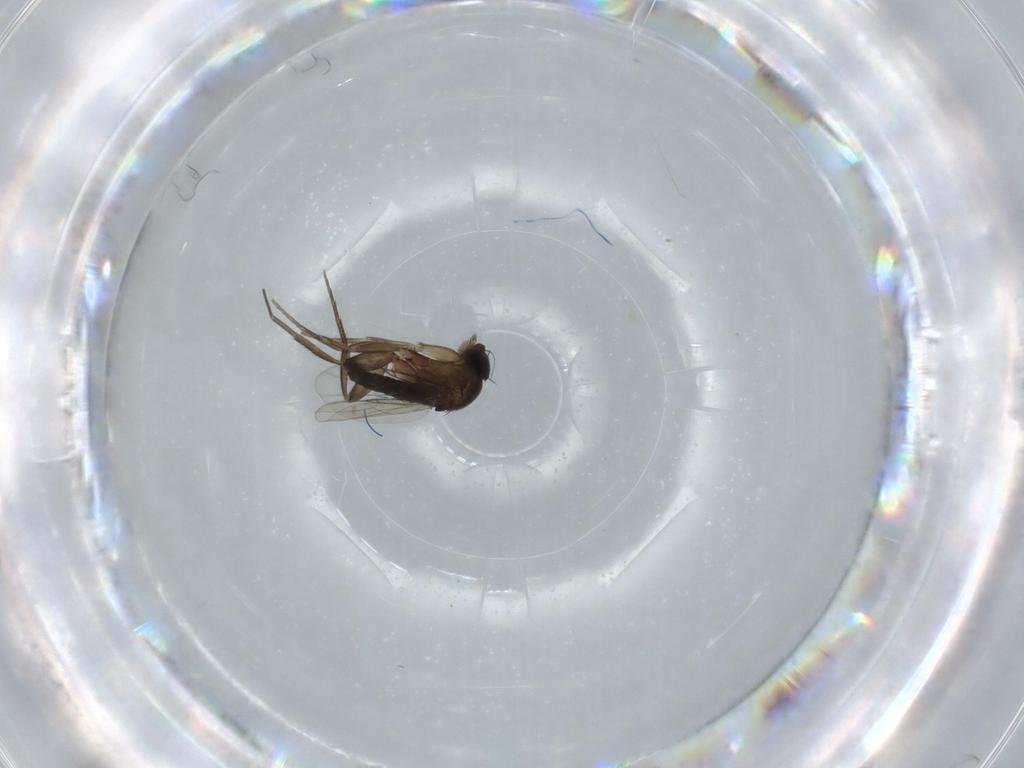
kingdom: Animalia
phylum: Arthropoda
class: Insecta
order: Diptera
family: Phoridae
